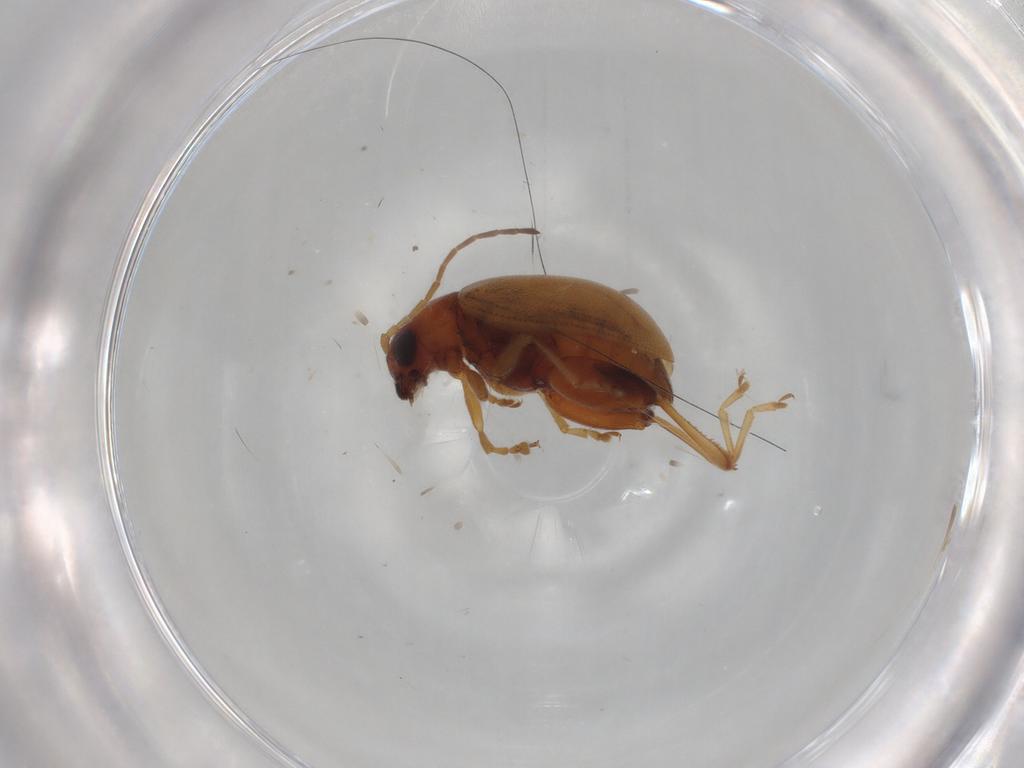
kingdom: Animalia
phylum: Arthropoda
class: Insecta
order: Coleoptera
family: Chrysomelidae
